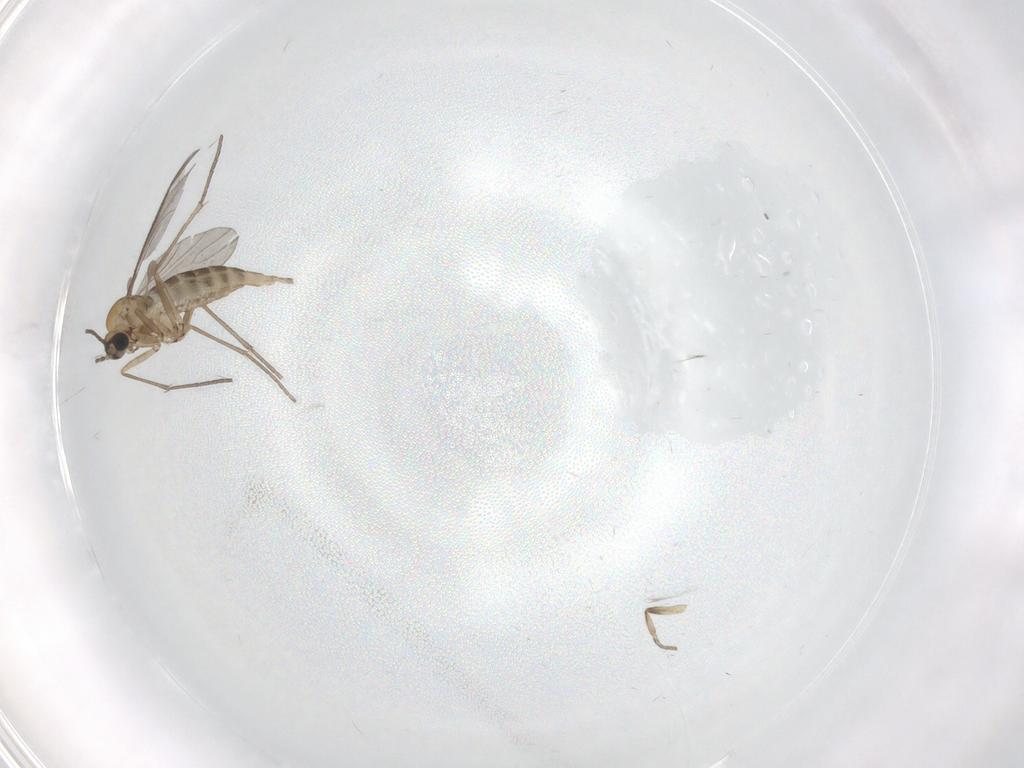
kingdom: Animalia
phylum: Arthropoda
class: Insecta
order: Diptera
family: Sciaridae
